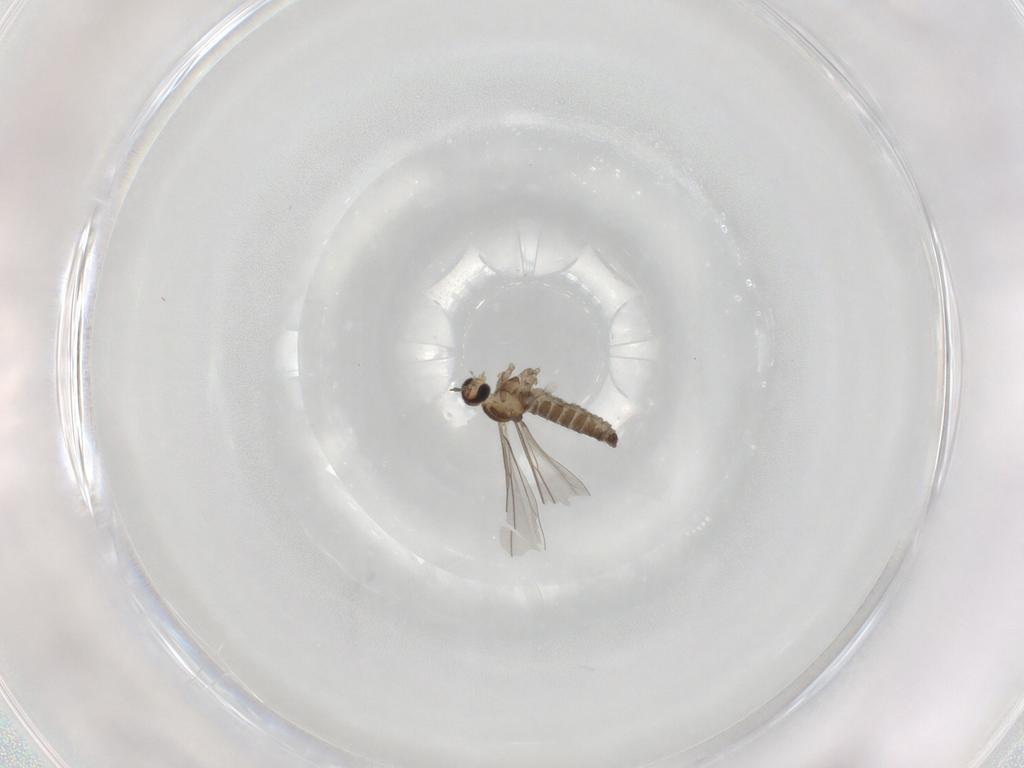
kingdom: Animalia
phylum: Arthropoda
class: Insecta
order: Diptera
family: Cecidomyiidae
